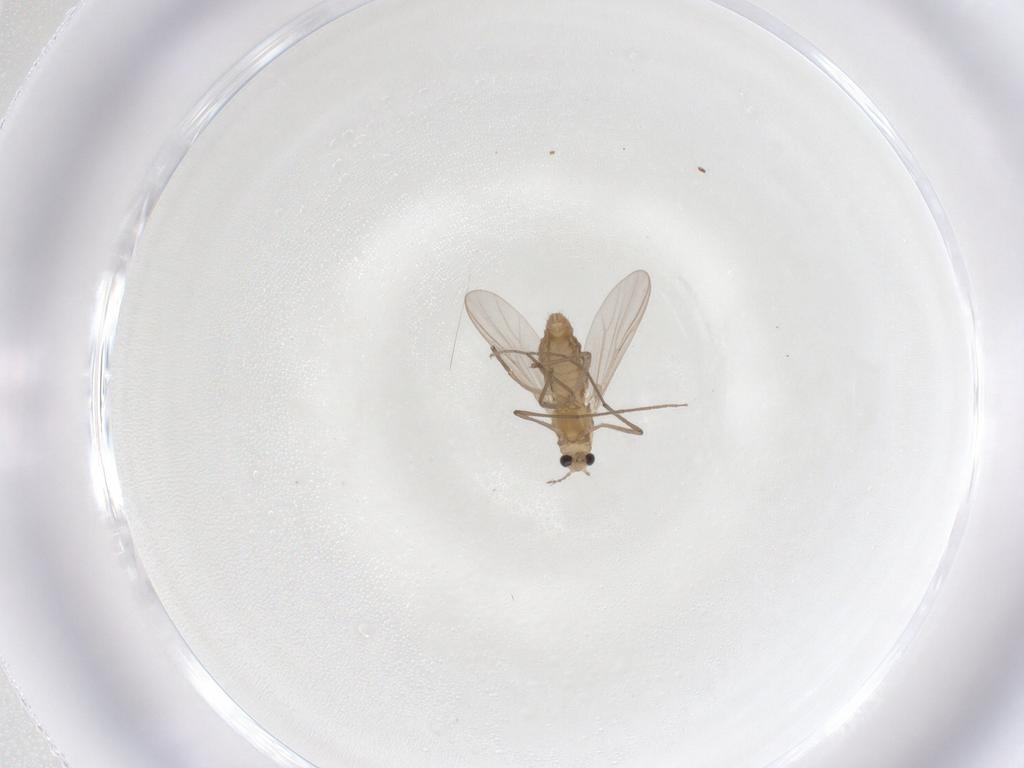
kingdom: Animalia
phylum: Arthropoda
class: Insecta
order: Diptera
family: Chironomidae
